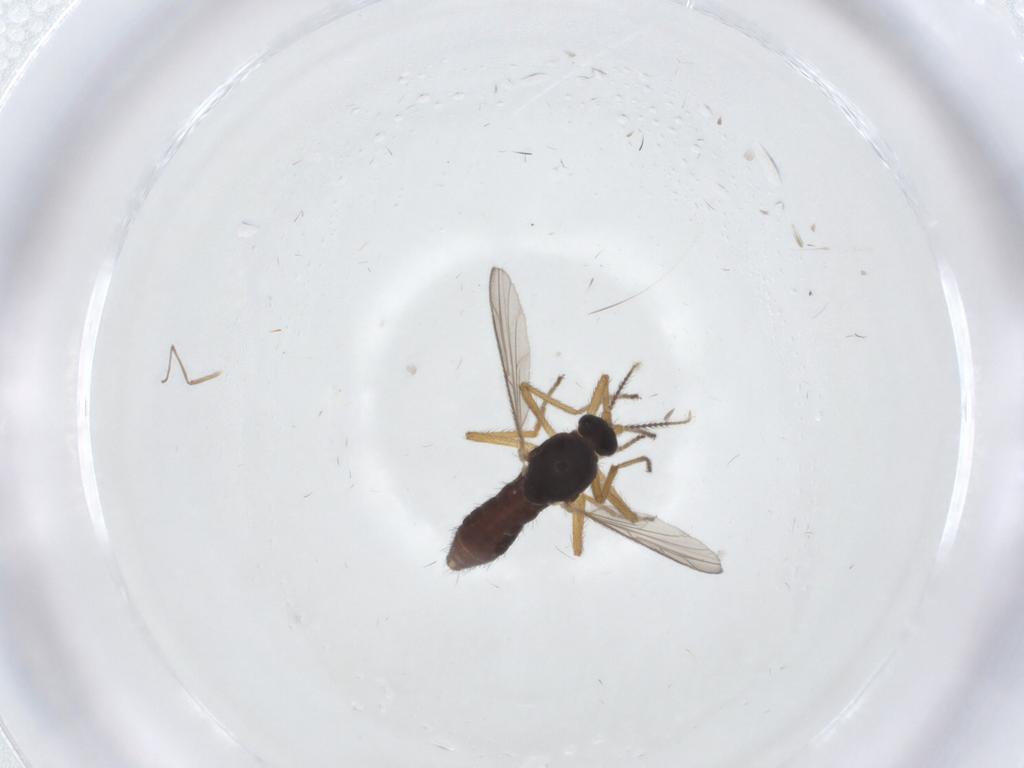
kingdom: Animalia
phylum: Arthropoda
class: Insecta
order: Diptera
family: Ceratopogonidae
